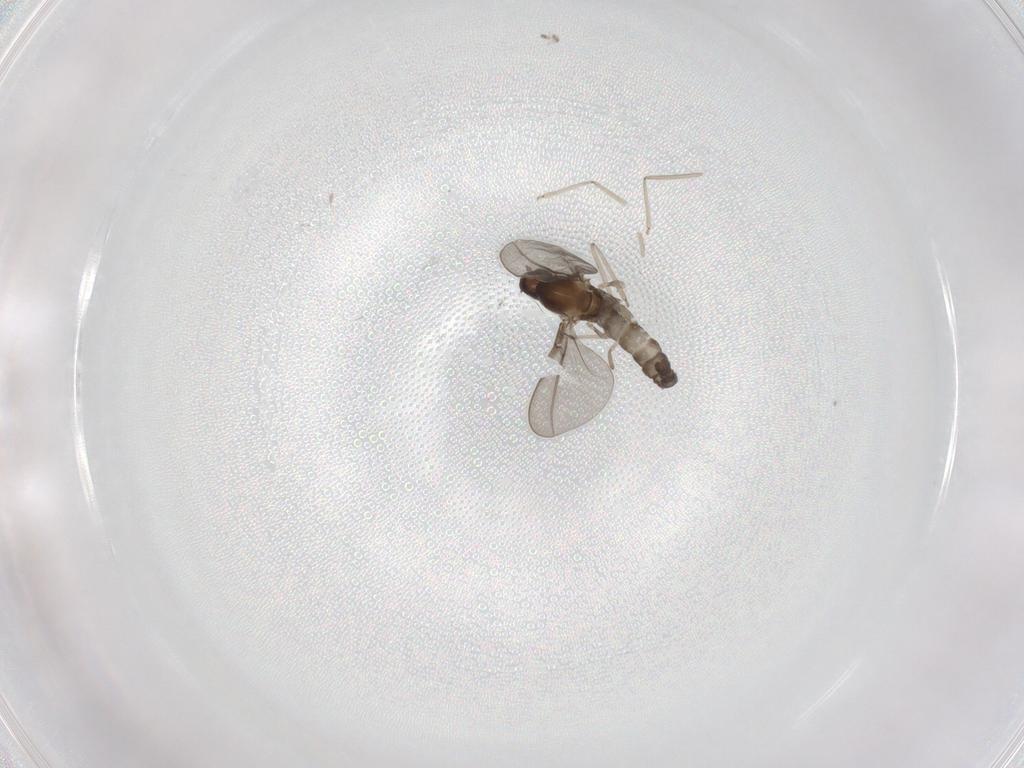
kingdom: Animalia
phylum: Arthropoda
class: Insecta
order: Diptera
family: Cecidomyiidae
